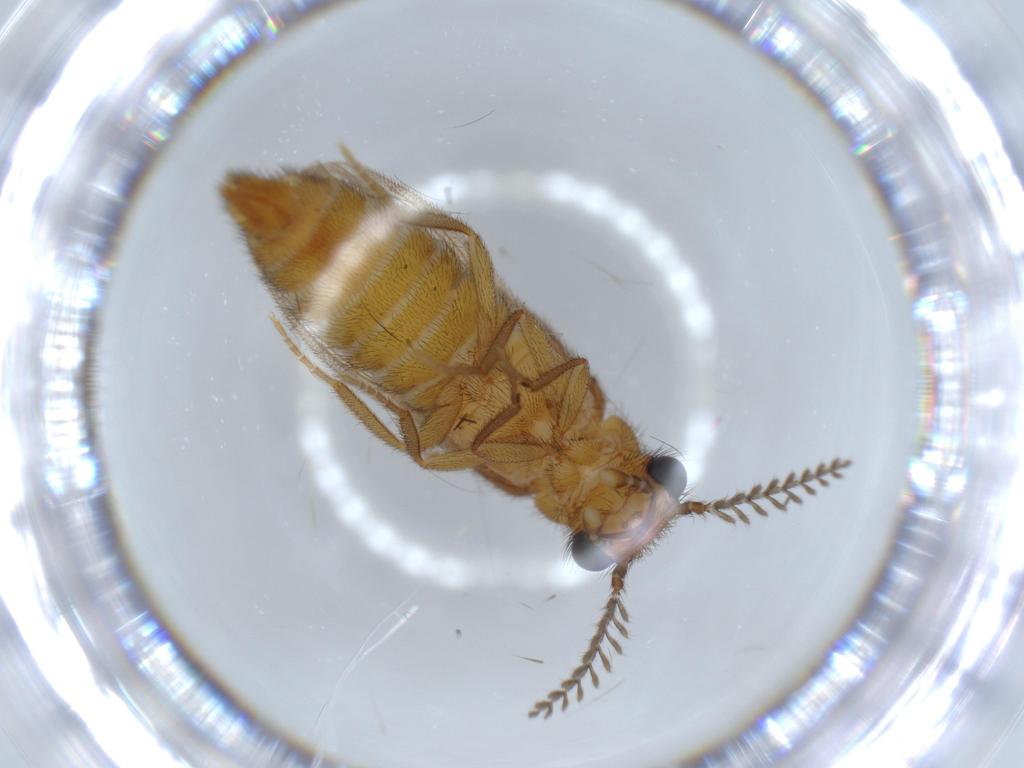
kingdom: Animalia
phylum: Arthropoda
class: Insecta
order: Coleoptera
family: Phengodidae
